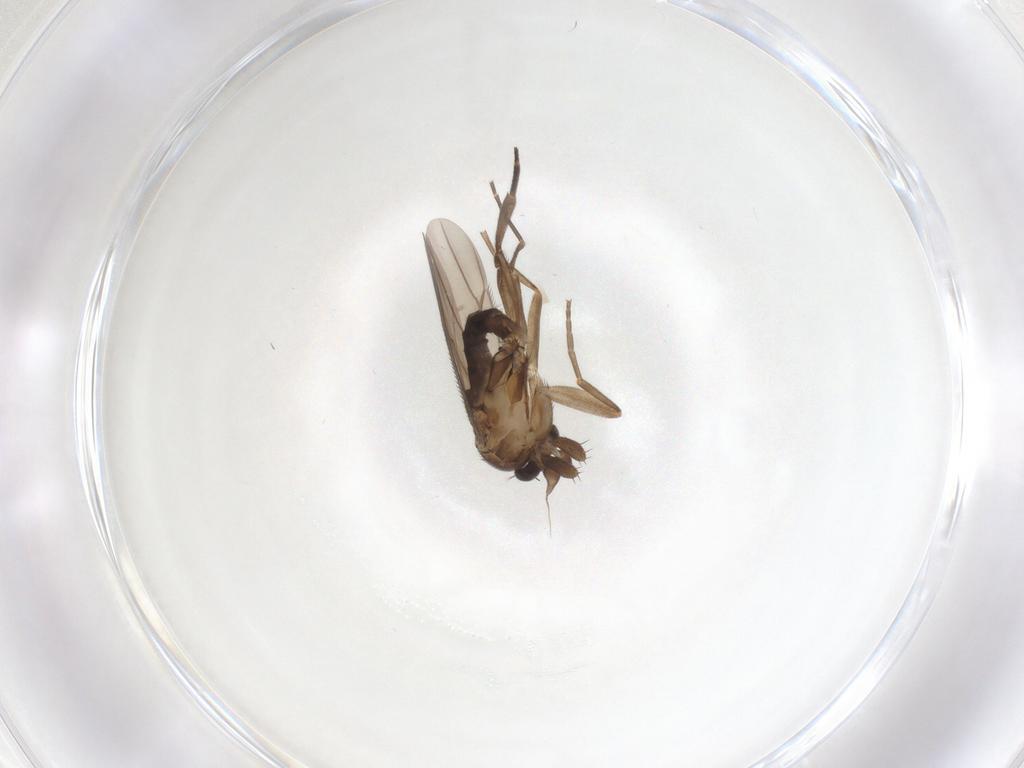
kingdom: Animalia
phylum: Arthropoda
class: Insecta
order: Diptera
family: Phoridae
